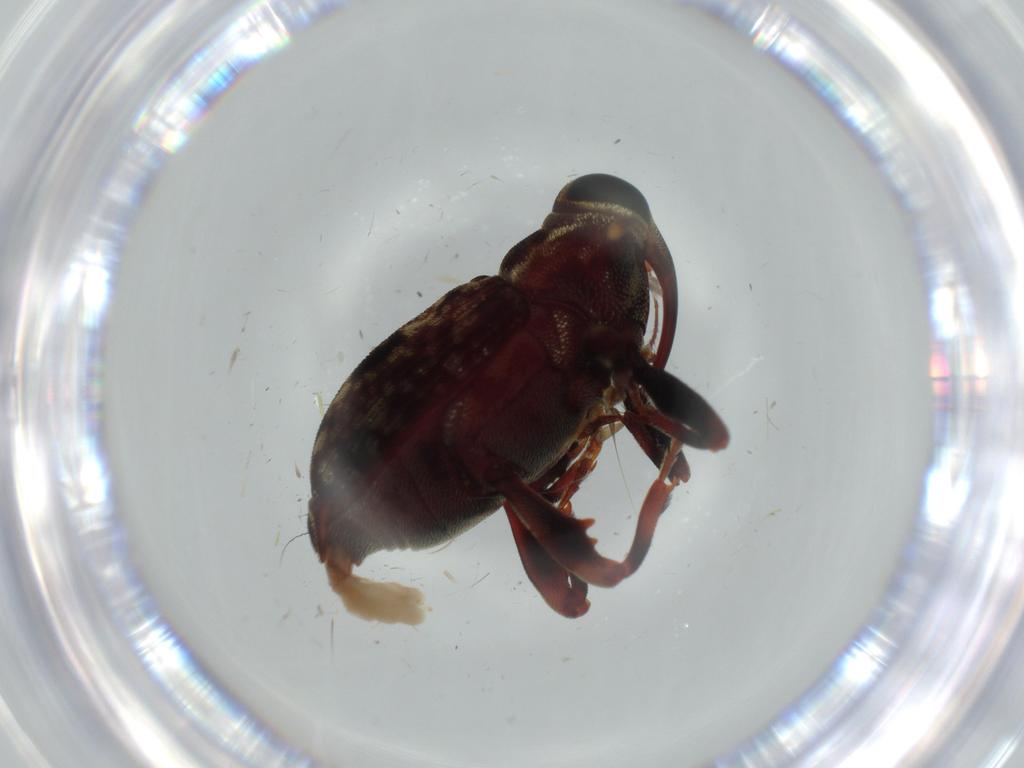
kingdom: Animalia
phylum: Arthropoda
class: Insecta
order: Coleoptera
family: Curculionidae
